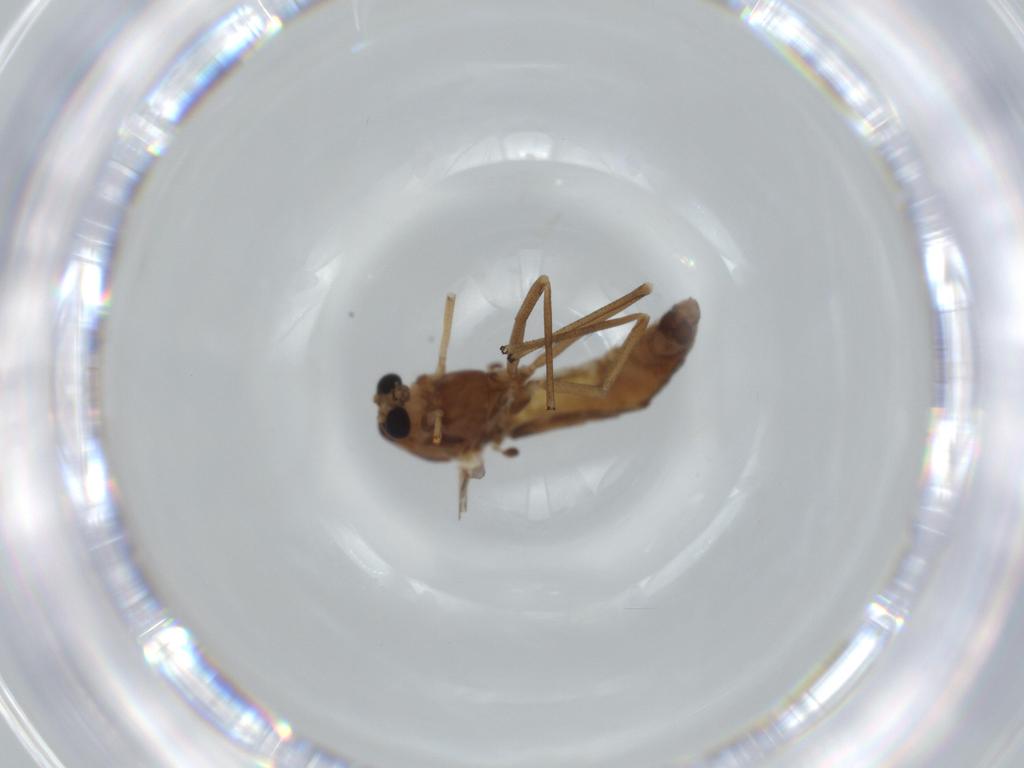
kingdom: Animalia
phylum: Arthropoda
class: Insecta
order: Diptera
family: Chironomidae
